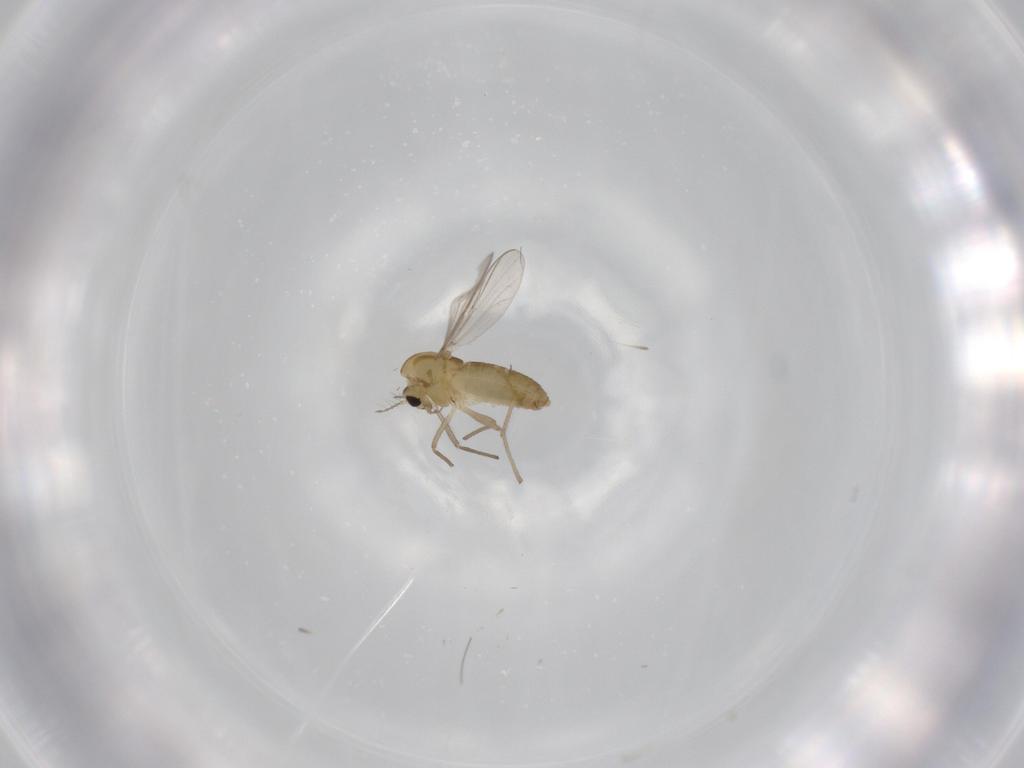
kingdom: Animalia
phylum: Arthropoda
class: Insecta
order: Diptera
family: Chironomidae
